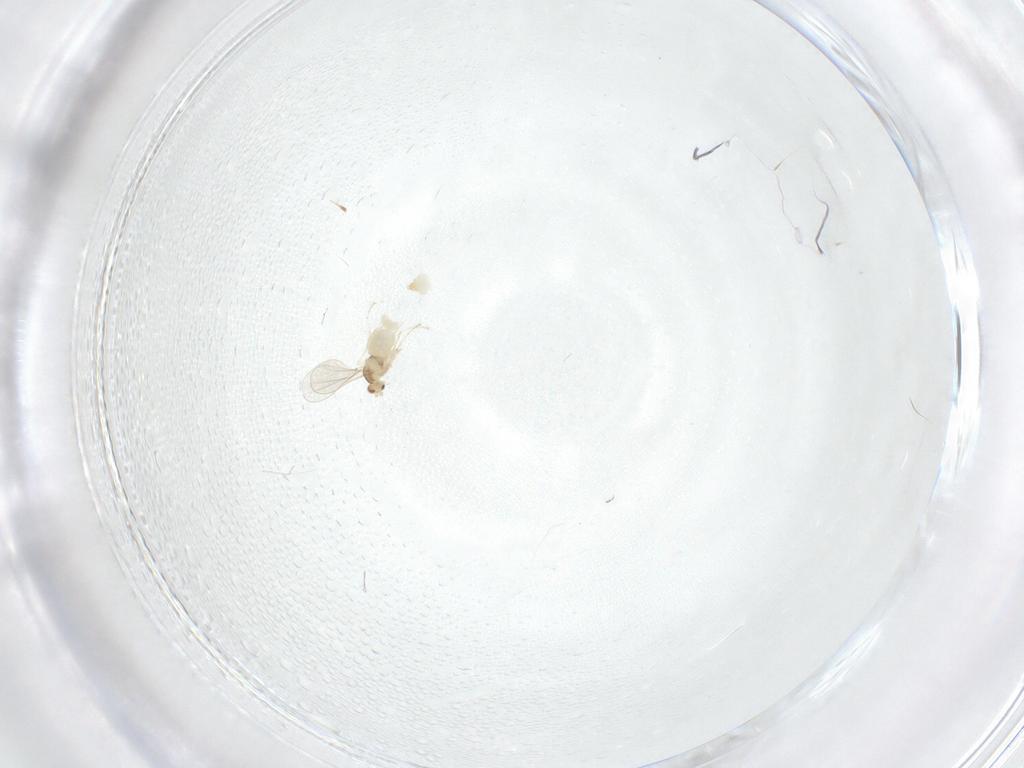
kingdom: Animalia
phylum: Arthropoda
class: Insecta
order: Diptera
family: Cecidomyiidae
